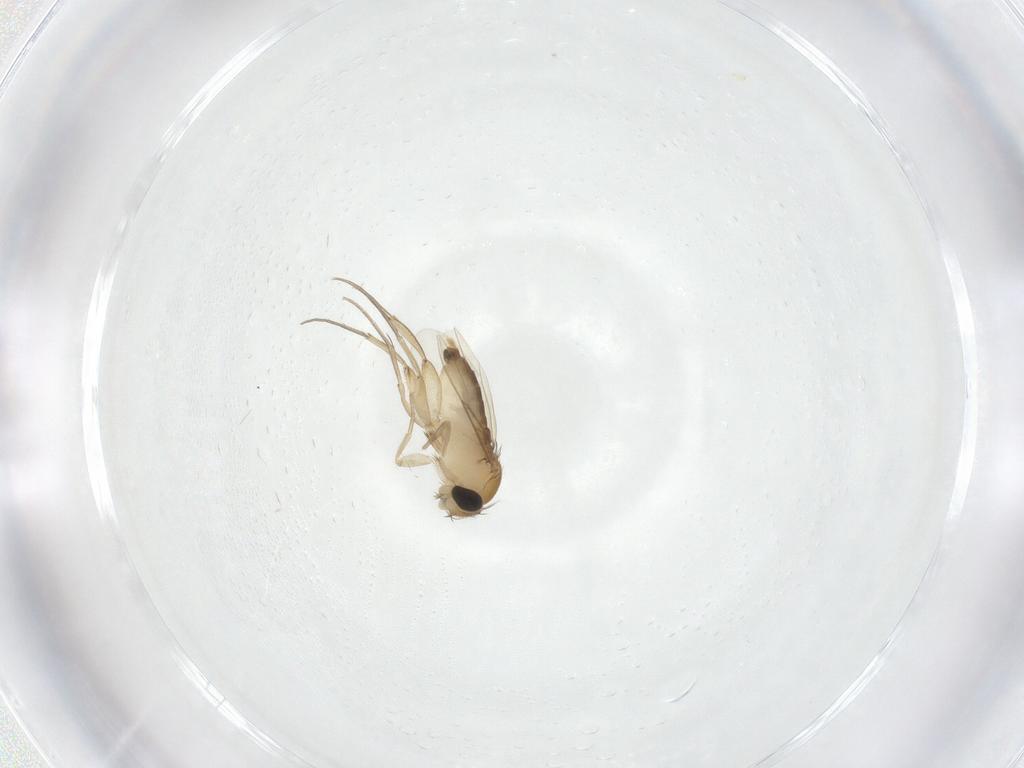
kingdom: Animalia
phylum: Arthropoda
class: Insecta
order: Diptera
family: Phoridae
